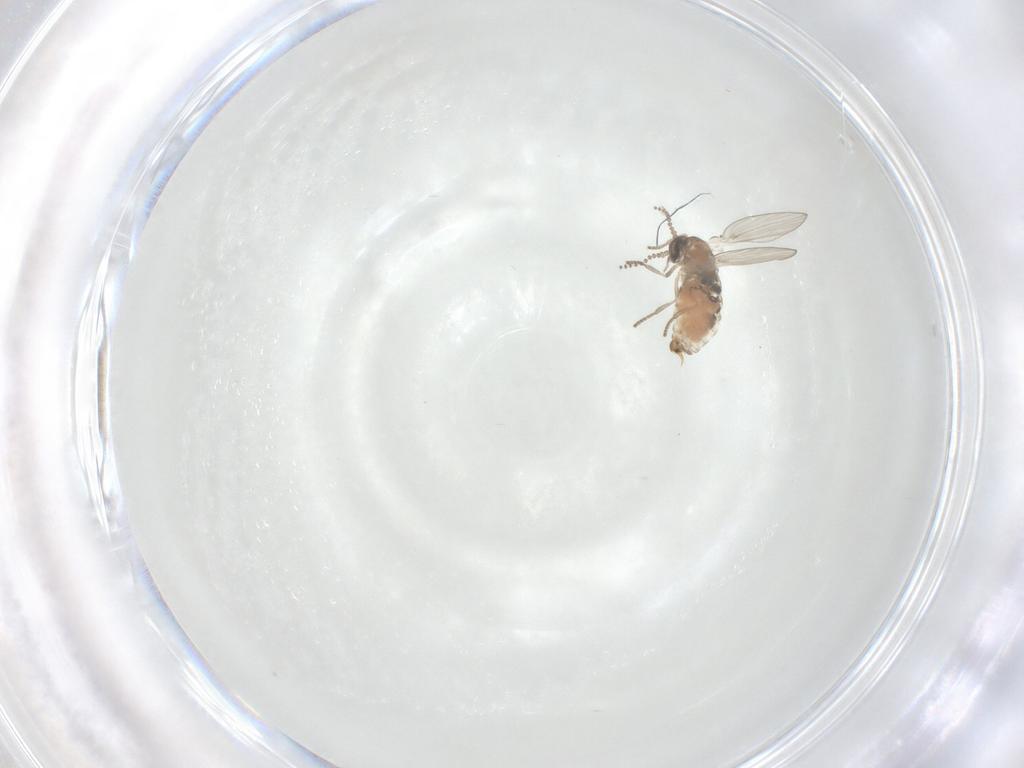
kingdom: Animalia
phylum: Arthropoda
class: Insecta
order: Diptera
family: Psychodidae
